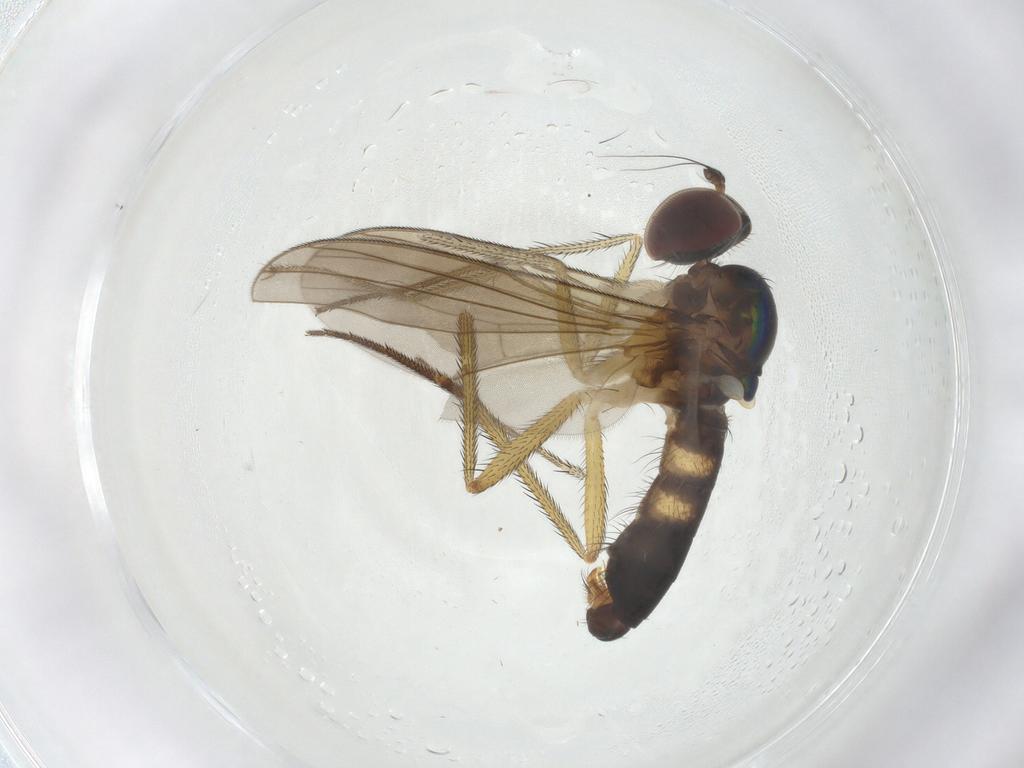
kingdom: Animalia
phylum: Arthropoda
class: Insecta
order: Diptera
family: Dolichopodidae
